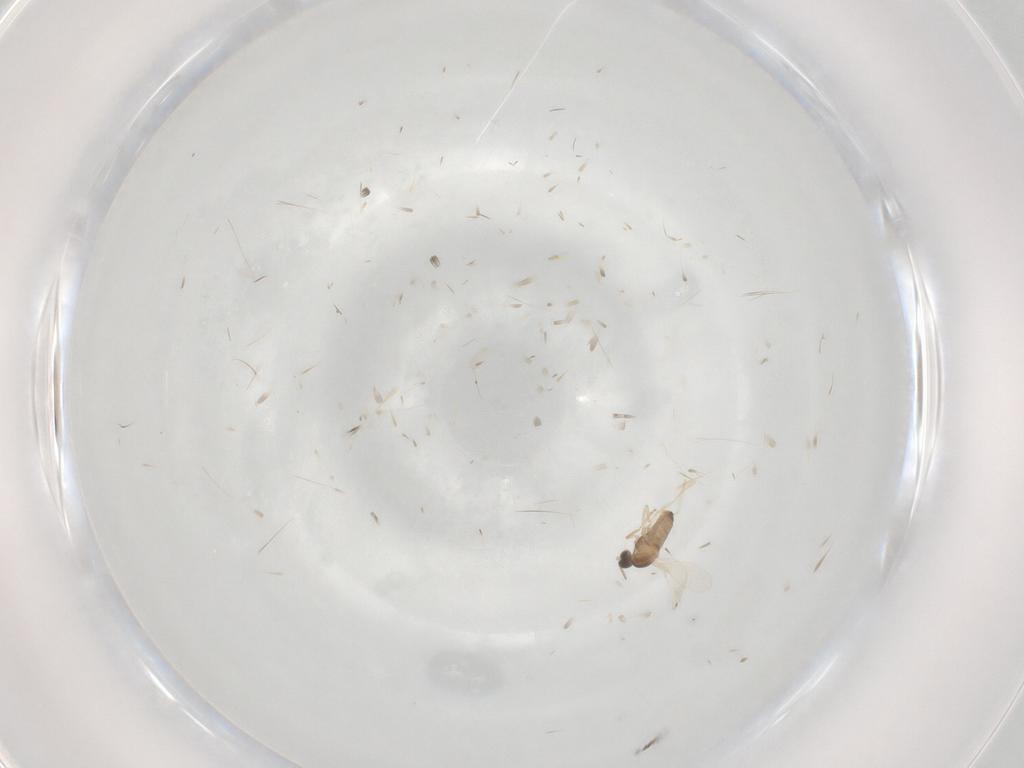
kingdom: Animalia
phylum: Arthropoda
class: Insecta
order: Diptera
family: Cecidomyiidae
